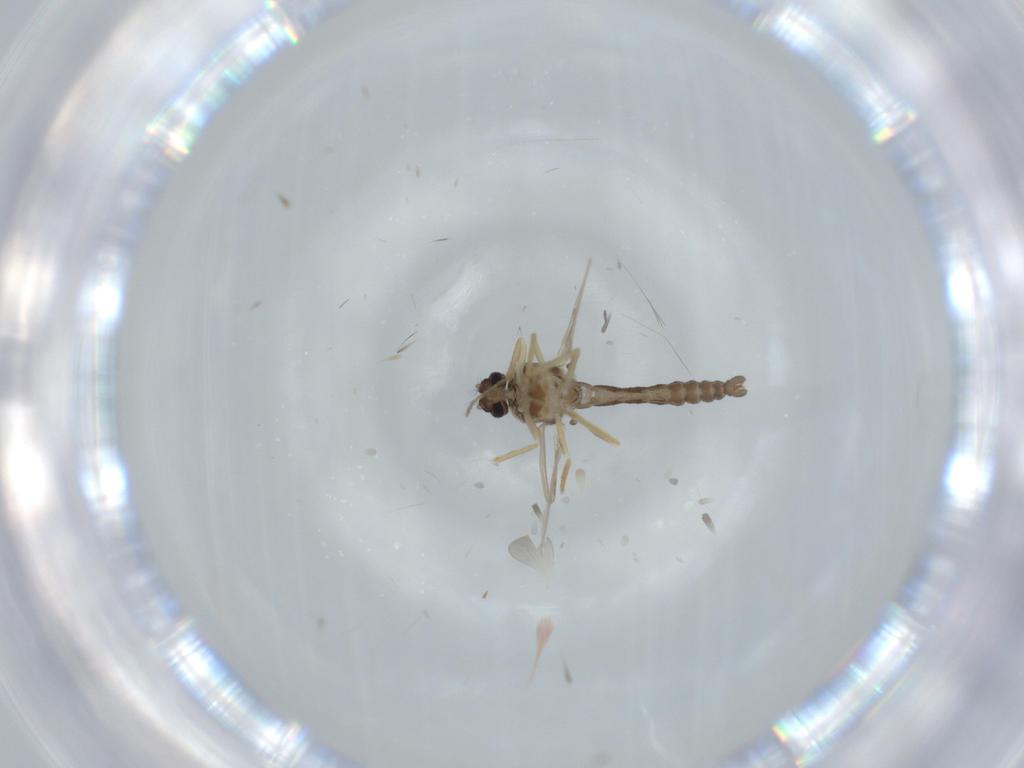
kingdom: Animalia
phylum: Arthropoda
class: Insecta
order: Diptera
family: Ceratopogonidae
